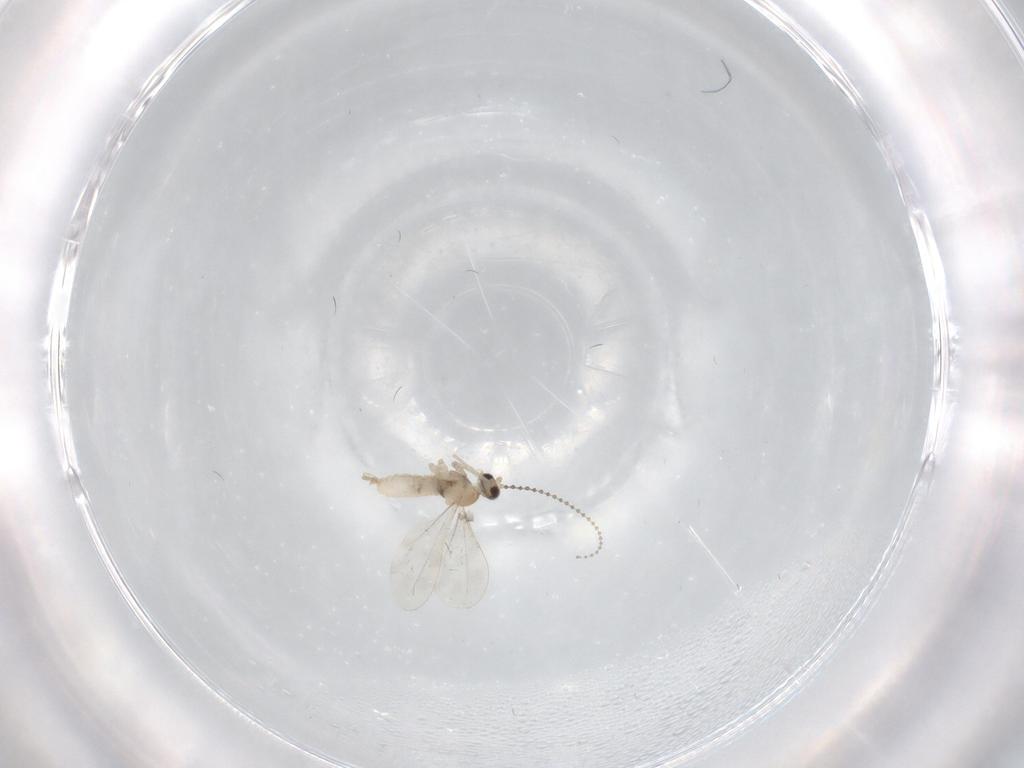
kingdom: Animalia
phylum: Arthropoda
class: Insecta
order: Diptera
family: Cecidomyiidae
